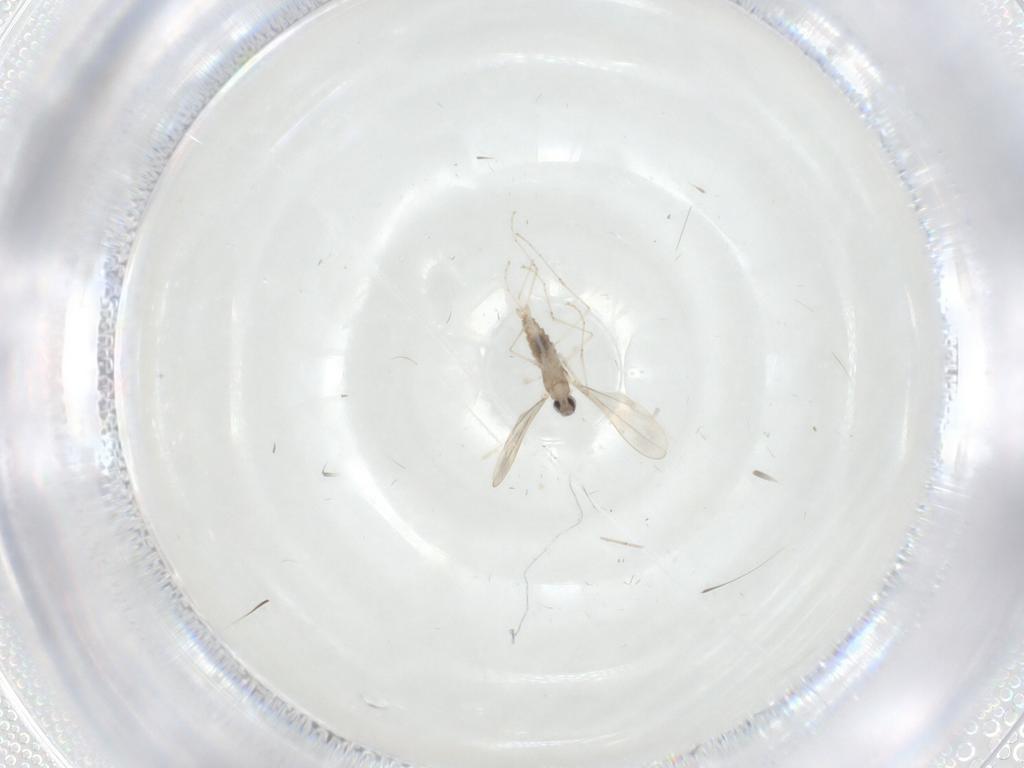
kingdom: Animalia
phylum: Arthropoda
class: Insecta
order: Diptera
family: Cecidomyiidae
